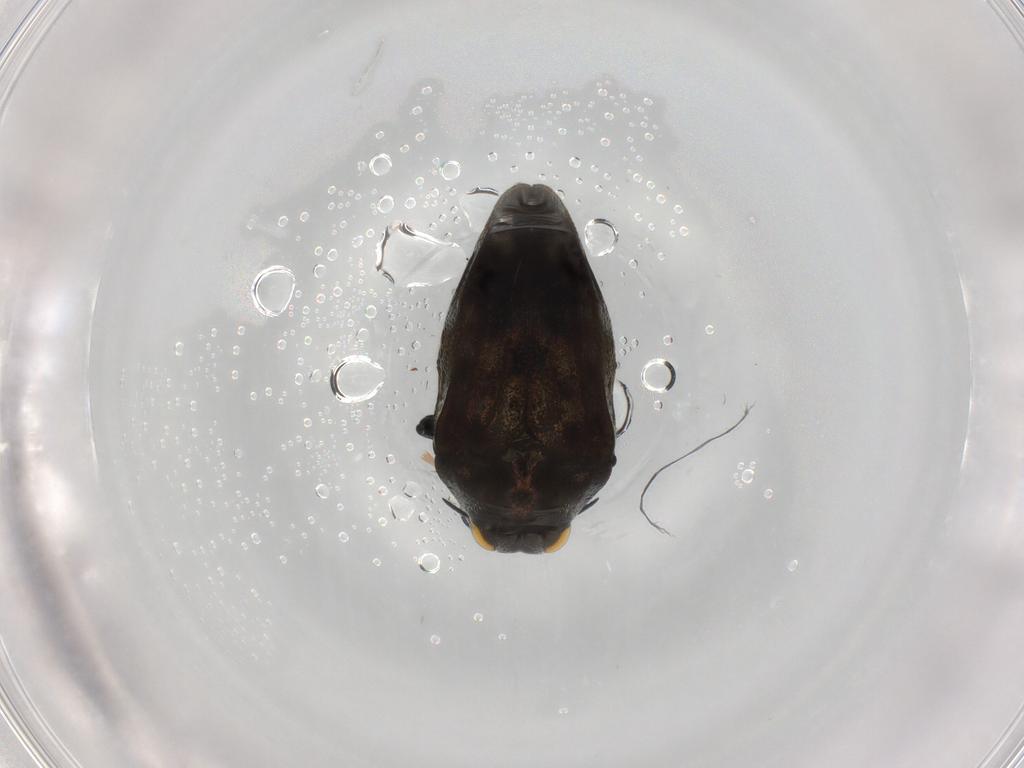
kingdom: Animalia
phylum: Arthropoda
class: Insecta
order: Coleoptera
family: Buprestidae
